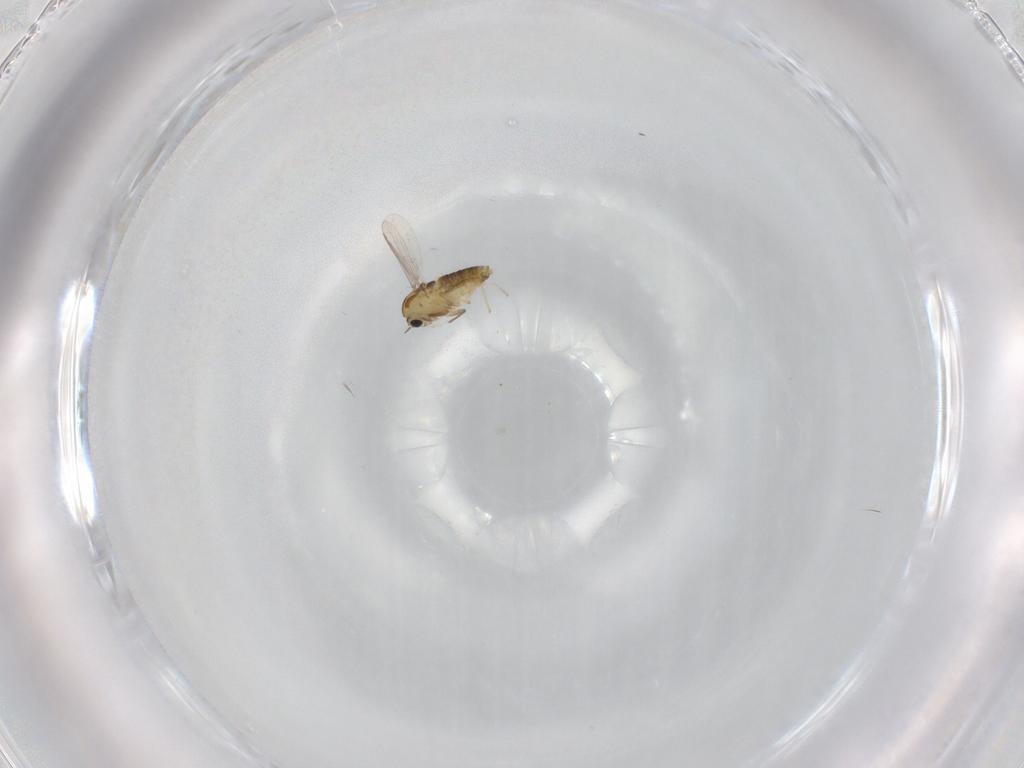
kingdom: Animalia
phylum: Arthropoda
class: Insecta
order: Diptera
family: Chironomidae
